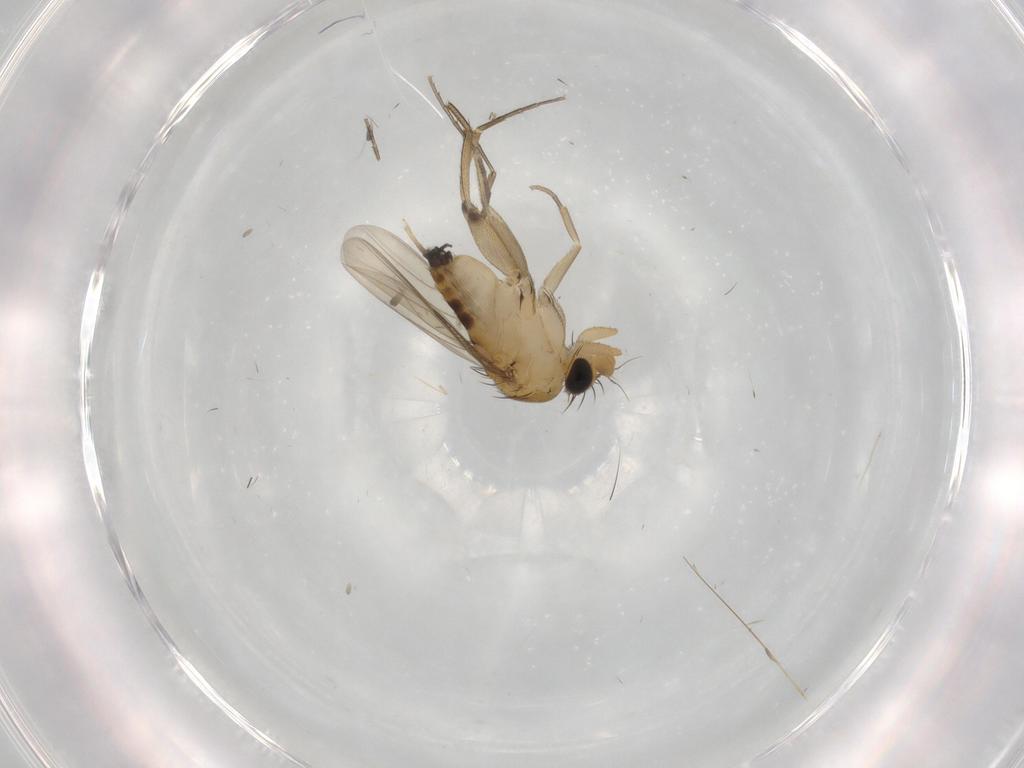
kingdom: Animalia
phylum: Arthropoda
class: Insecta
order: Diptera
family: Phoridae
